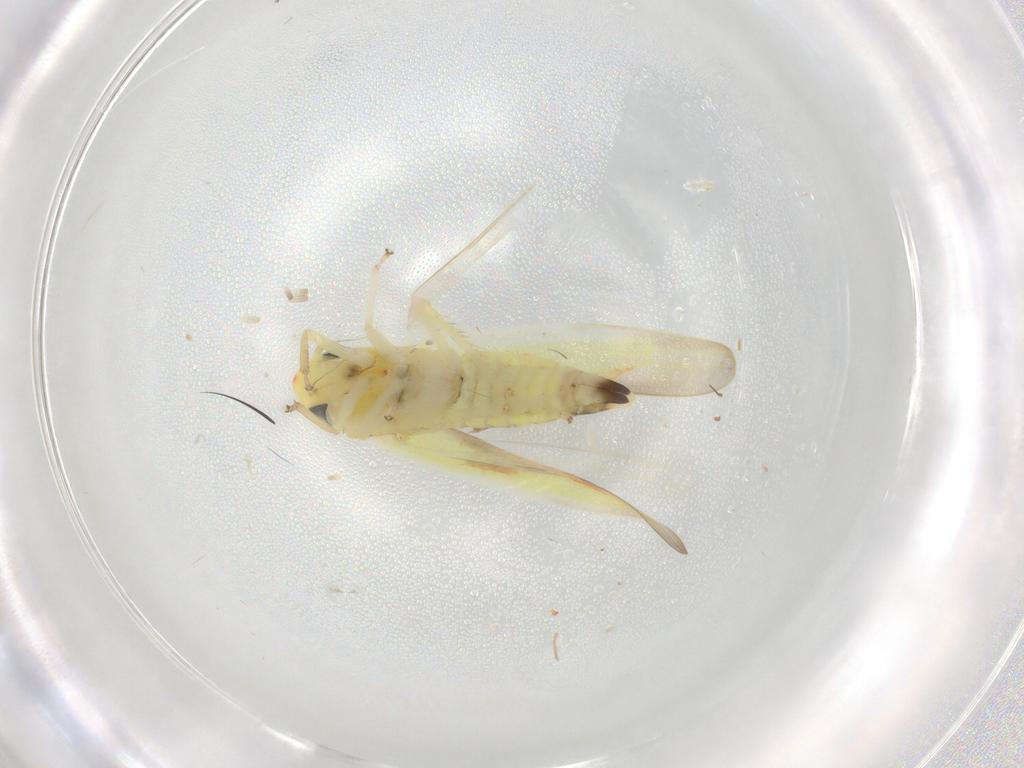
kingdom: Animalia
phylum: Arthropoda
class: Insecta
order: Hemiptera
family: Cicadellidae
